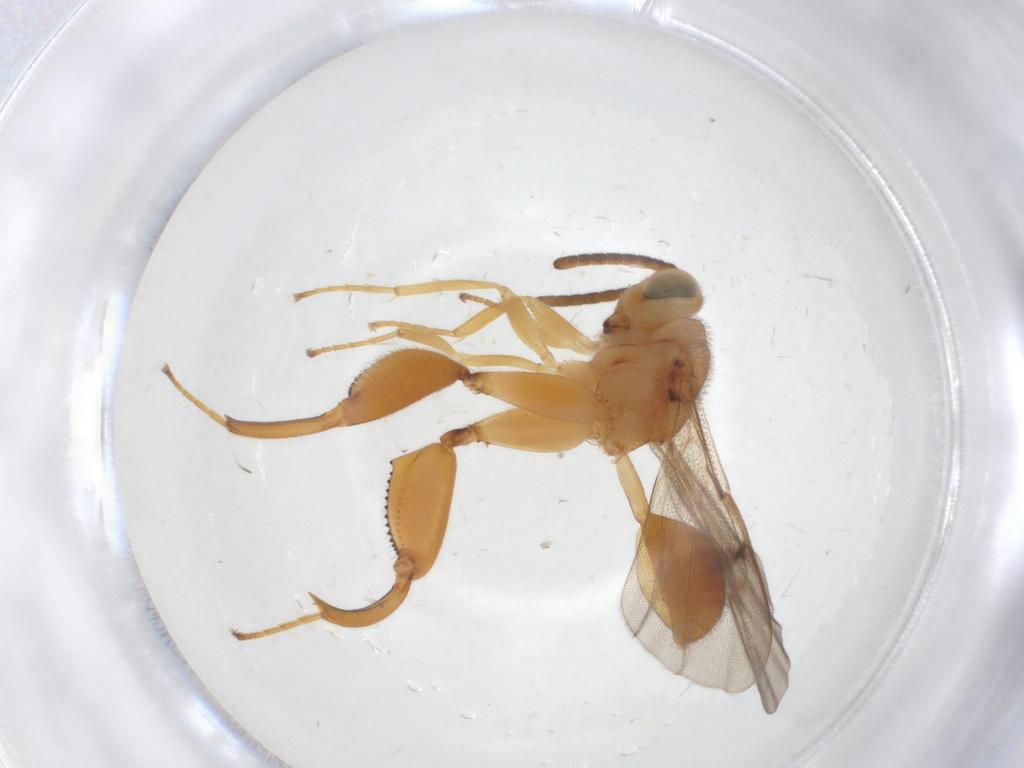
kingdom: Animalia
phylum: Arthropoda
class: Insecta
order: Hymenoptera
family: Chalcididae
